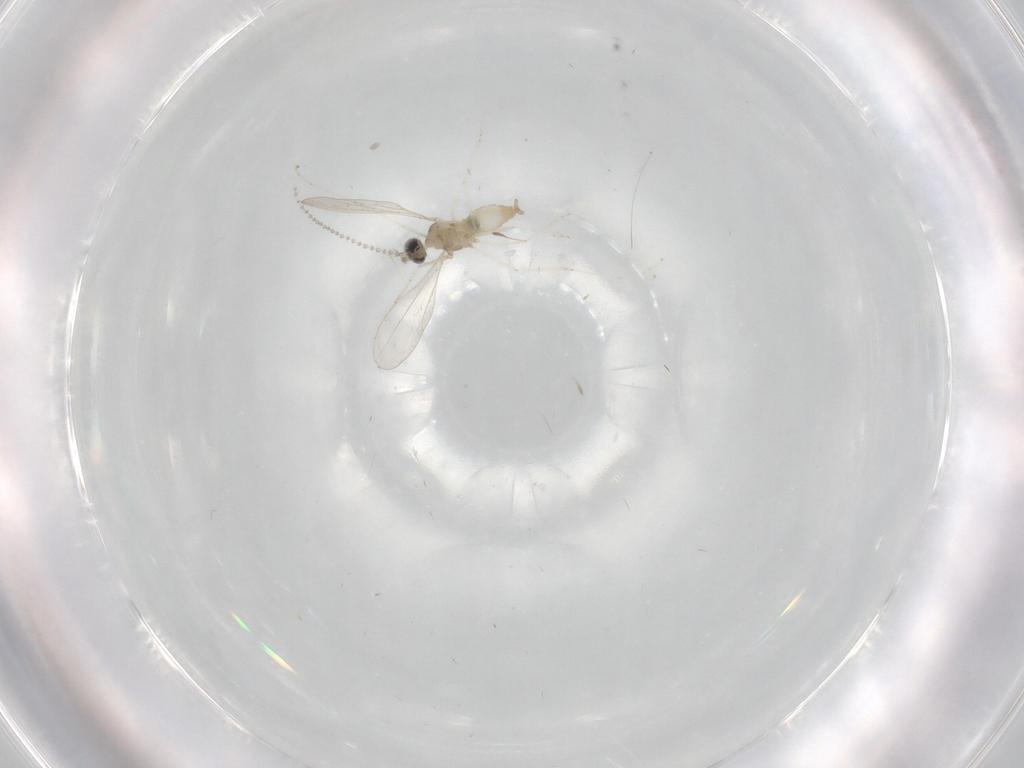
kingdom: Animalia
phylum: Arthropoda
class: Insecta
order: Diptera
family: Cecidomyiidae
